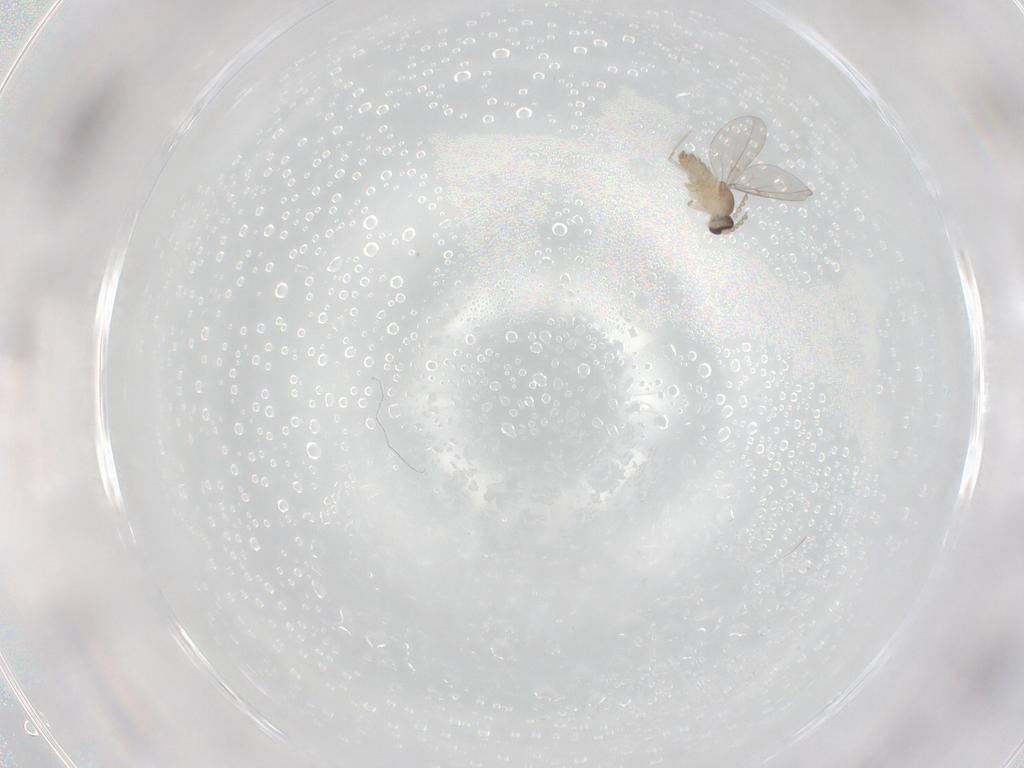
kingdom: Animalia
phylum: Arthropoda
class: Insecta
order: Diptera
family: Cecidomyiidae
